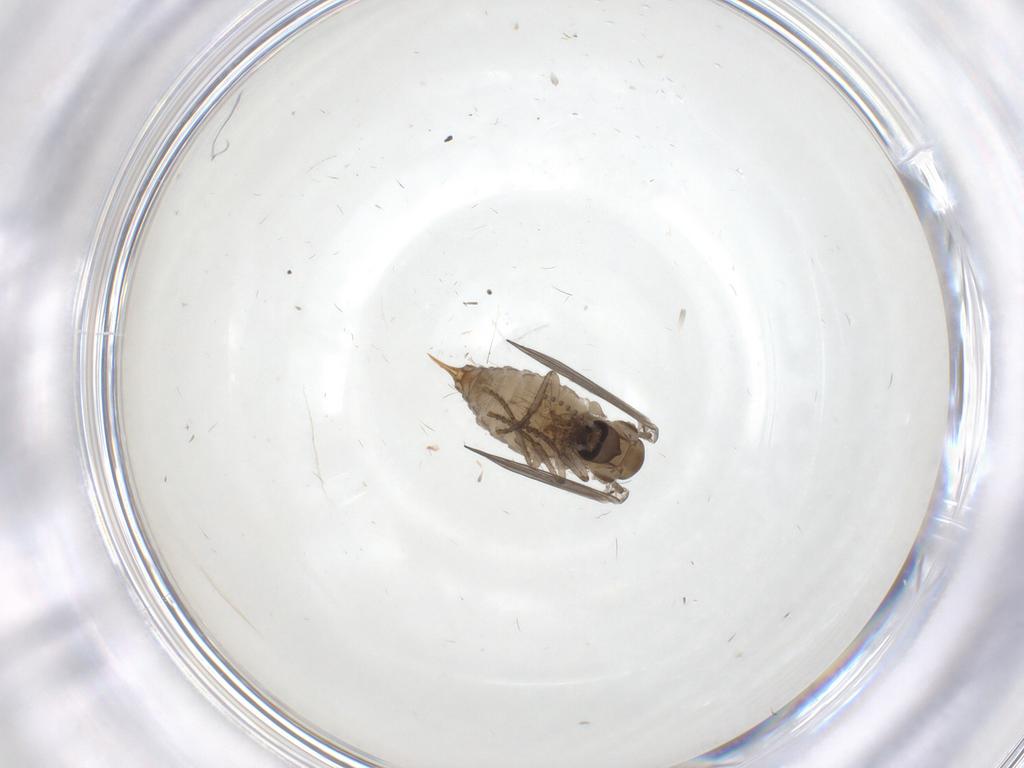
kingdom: Animalia
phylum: Arthropoda
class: Insecta
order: Diptera
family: Psychodidae
